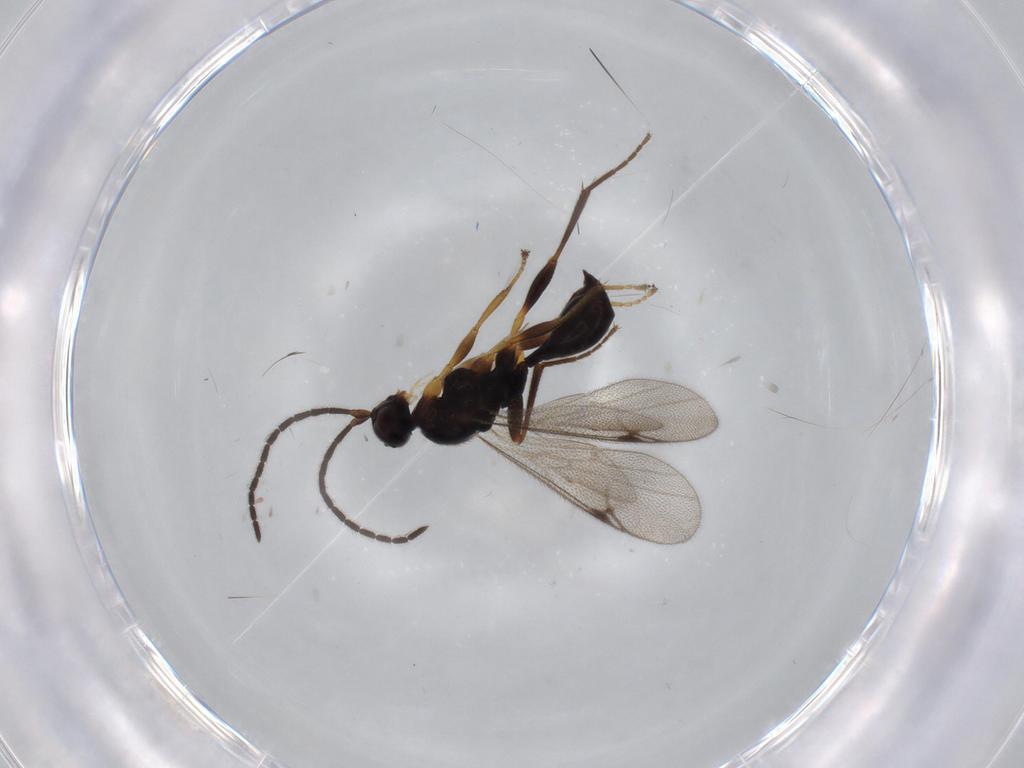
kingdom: Animalia
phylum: Arthropoda
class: Insecta
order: Hymenoptera
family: Proctotrupidae
